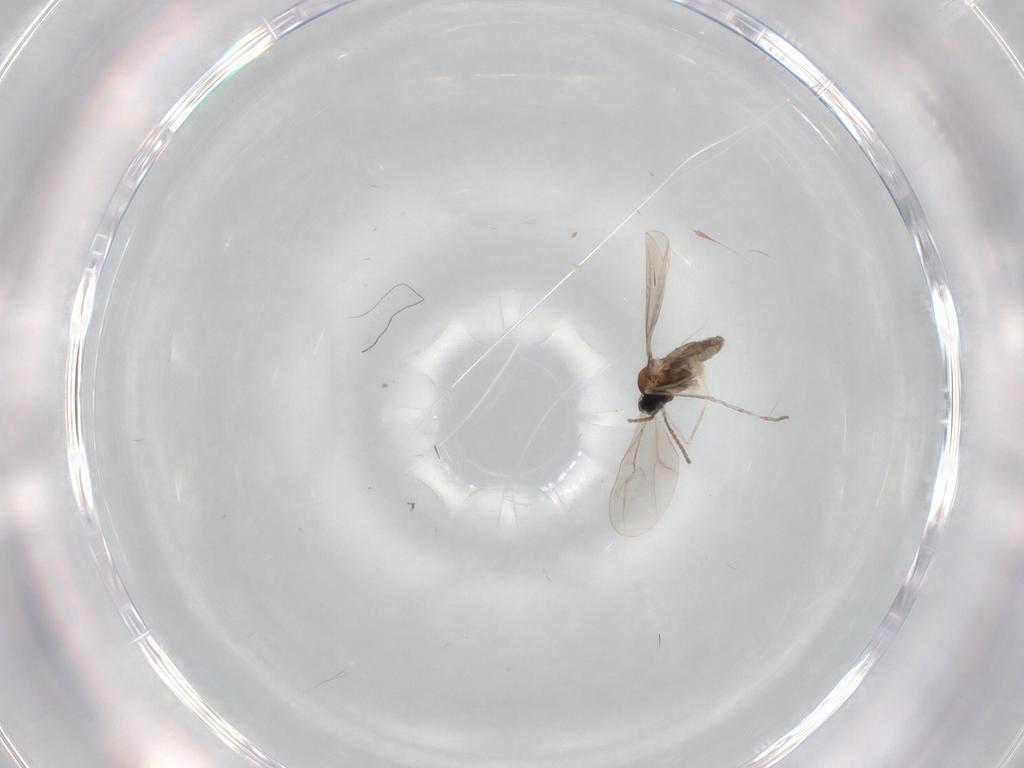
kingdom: Animalia
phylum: Arthropoda
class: Insecta
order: Diptera
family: Cecidomyiidae
